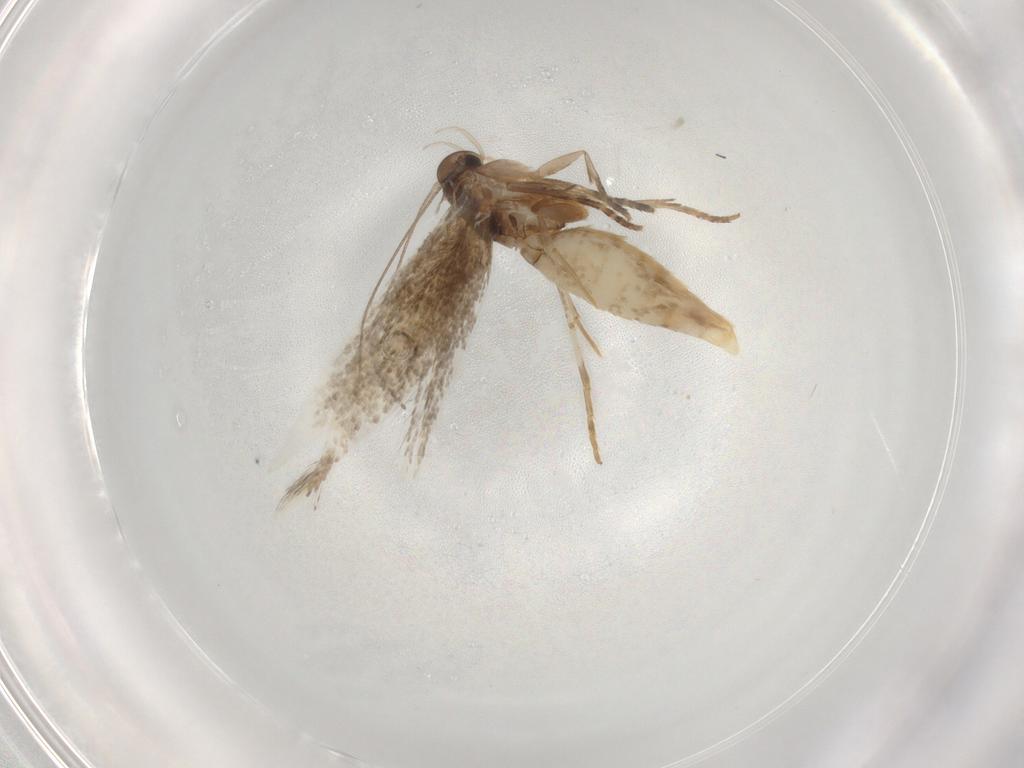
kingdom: Animalia
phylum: Arthropoda
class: Insecta
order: Lepidoptera
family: Elachistidae
